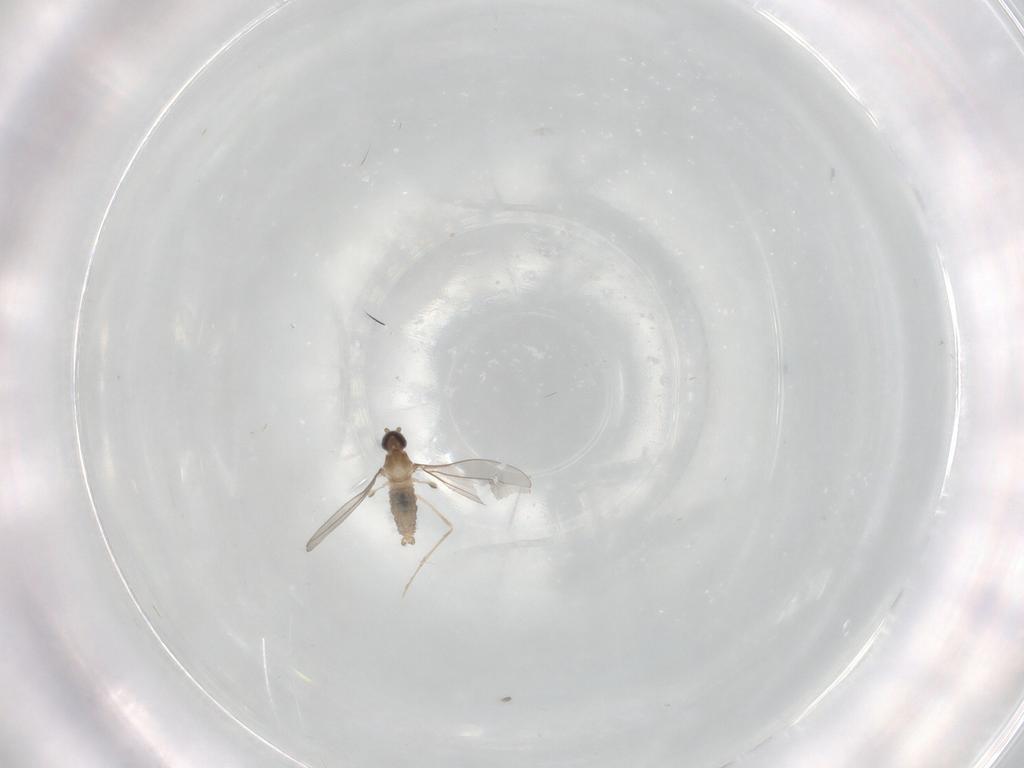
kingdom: Animalia
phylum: Arthropoda
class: Insecta
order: Diptera
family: Cecidomyiidae
